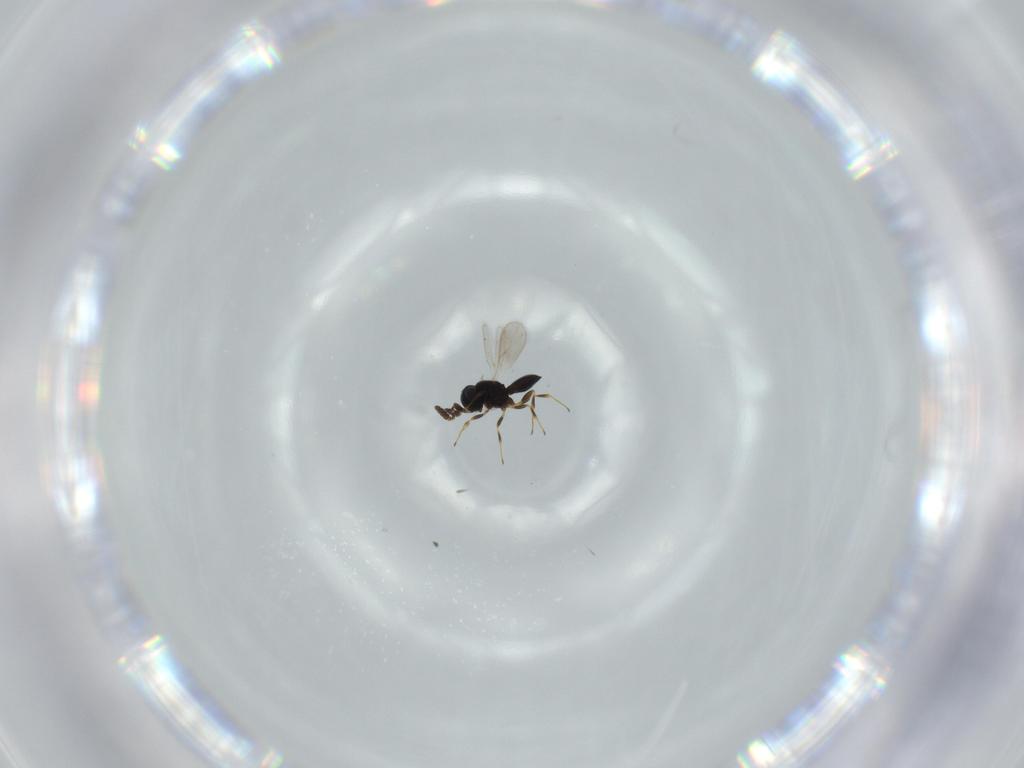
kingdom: Animalia
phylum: Arthropoda
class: Insecta
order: Hymenoptera
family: Scelionidae
